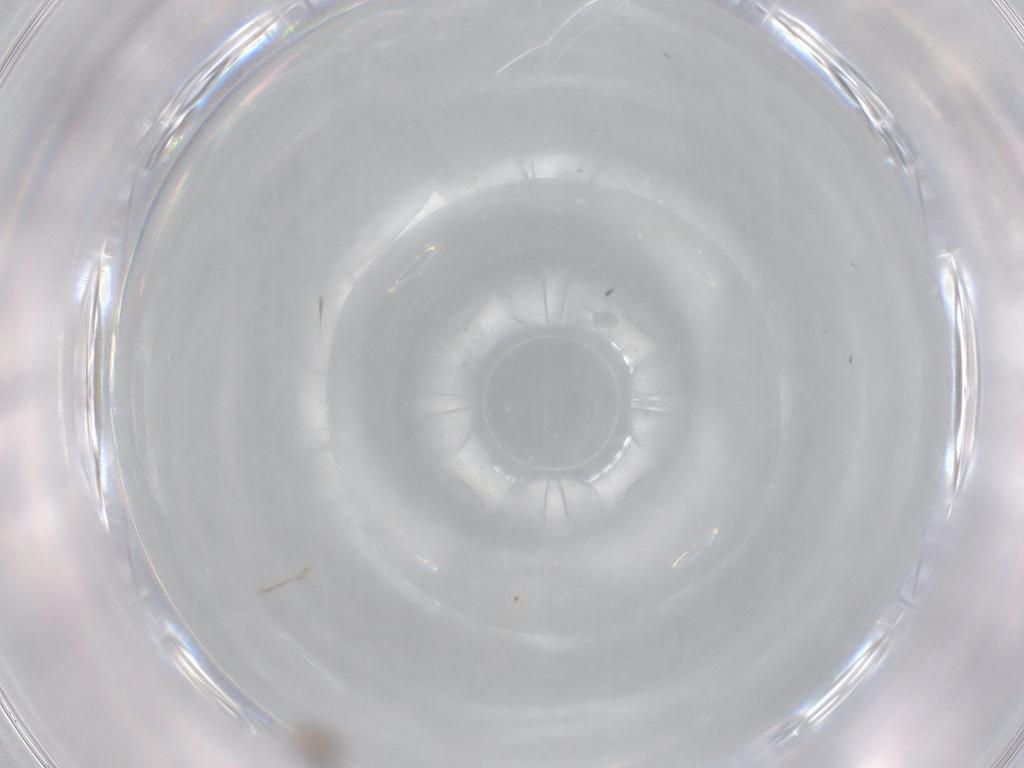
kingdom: Animalia
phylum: Arthropoda
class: Insecta
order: Diptera
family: Cecidomyiidae
